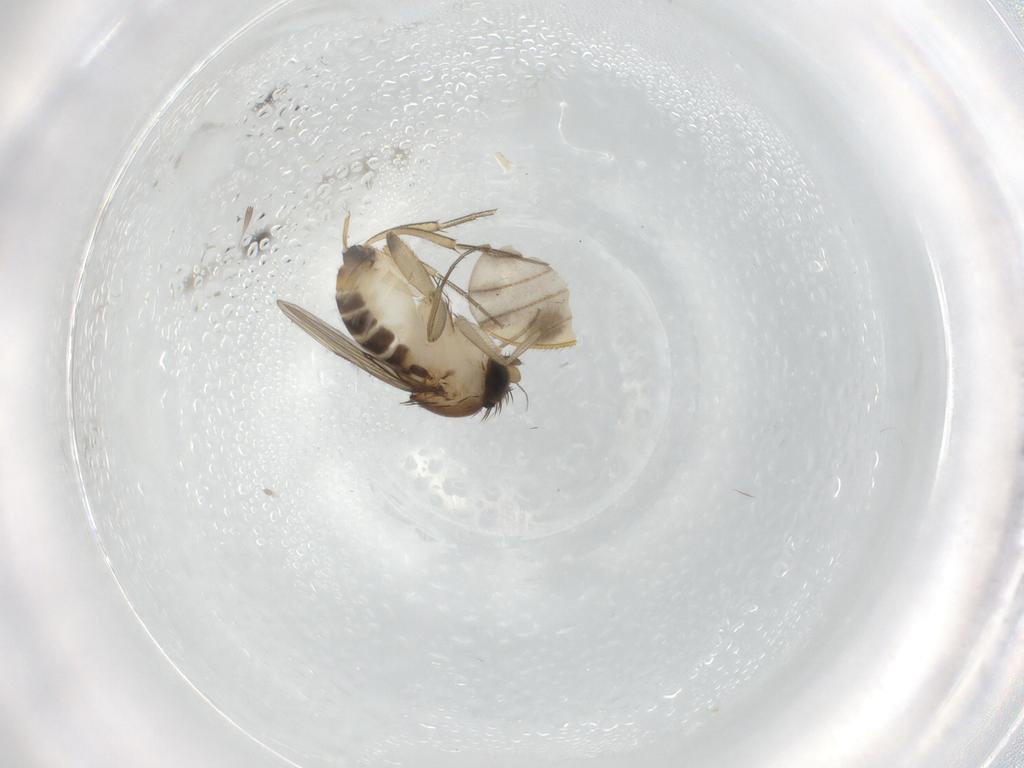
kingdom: Animalia
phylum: Arthropoda
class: Insecta
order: Diptera
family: Phoridae
